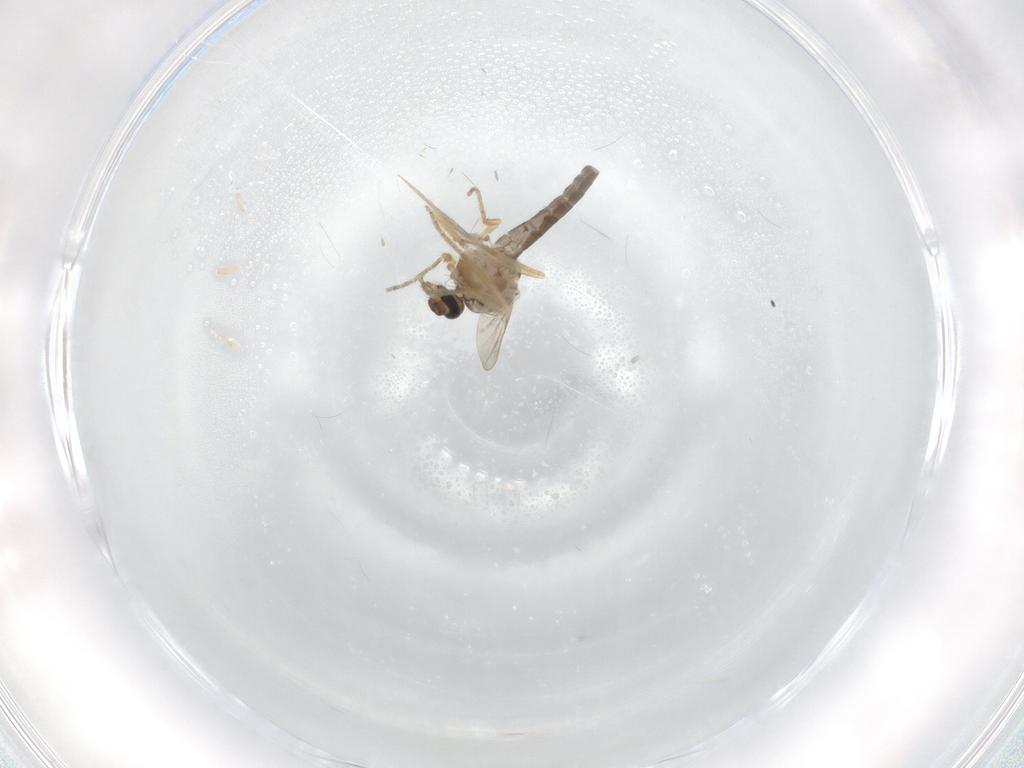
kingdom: Animalia
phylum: Arthropoda
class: Insecta
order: Diptera
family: Ceratopogonidae
